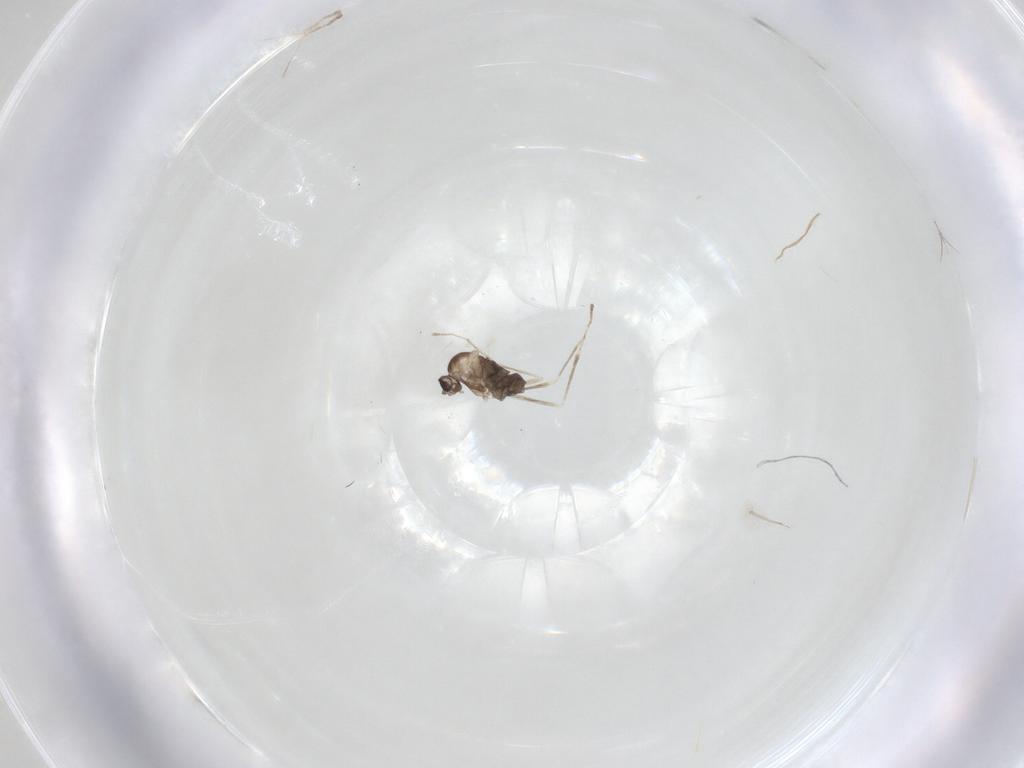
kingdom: Animalia
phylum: Arthropoda
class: Insecta
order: Diptera
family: Cecidomyiidae
